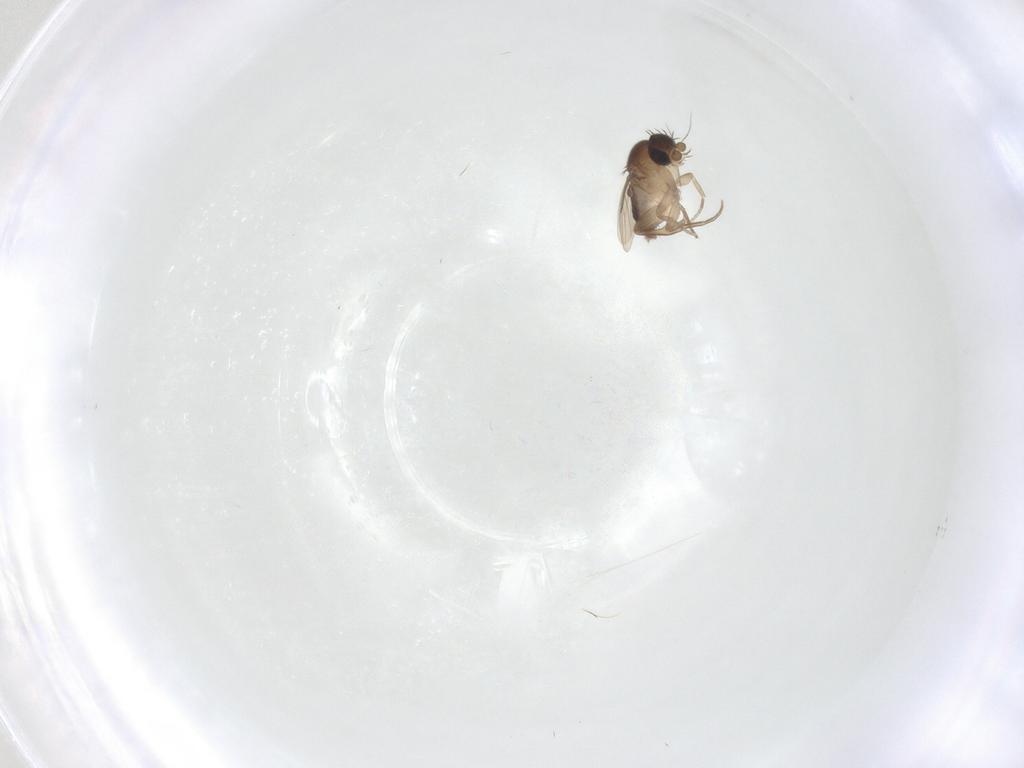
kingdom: Animalia
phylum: Arthropoda
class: Insecta
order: Diptera
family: Phoridae
